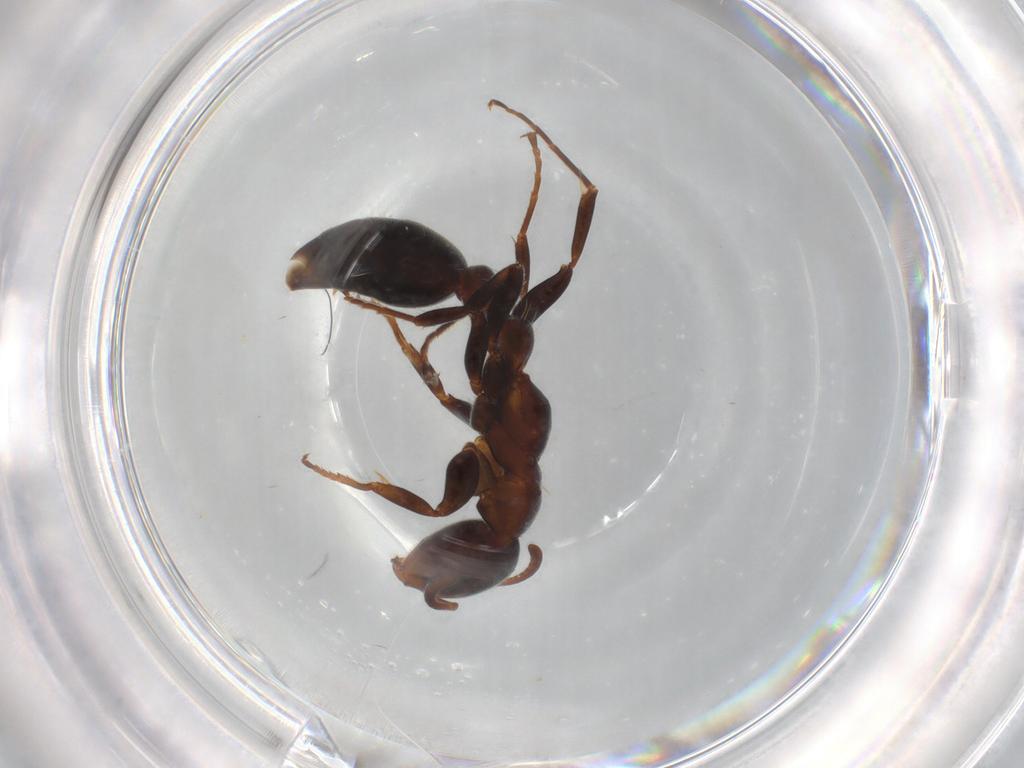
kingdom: Animalia
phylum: Arthropoda
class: Insecta
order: Hymenoptera
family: Formicidae
